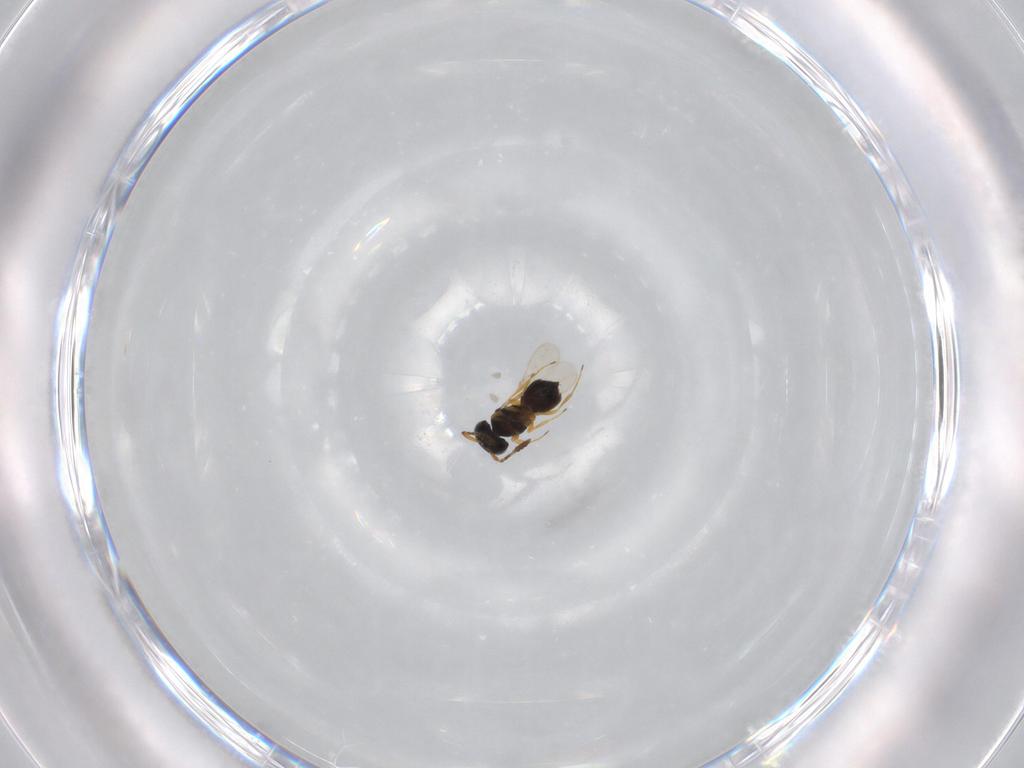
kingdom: Animalia
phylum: Arthropoda
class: Insecta
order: Hymenoptera
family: Scelionidae
